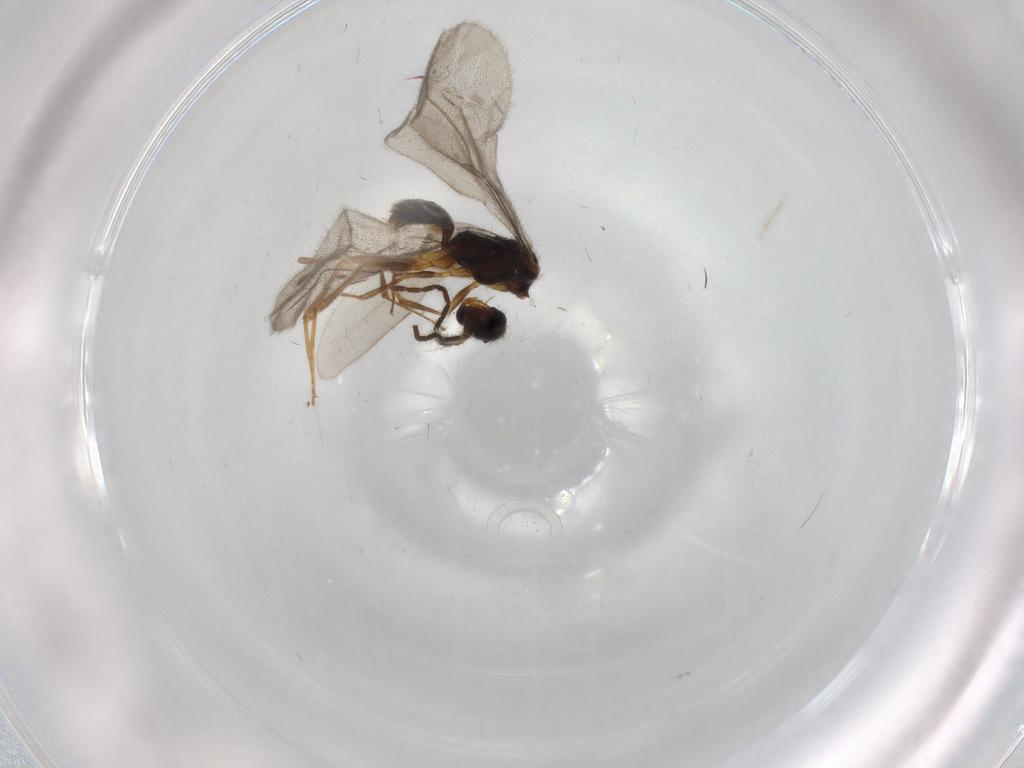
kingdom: Animalia
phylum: Arthropoda
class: Insecta
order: Hymenoptera
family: Bethylidae
